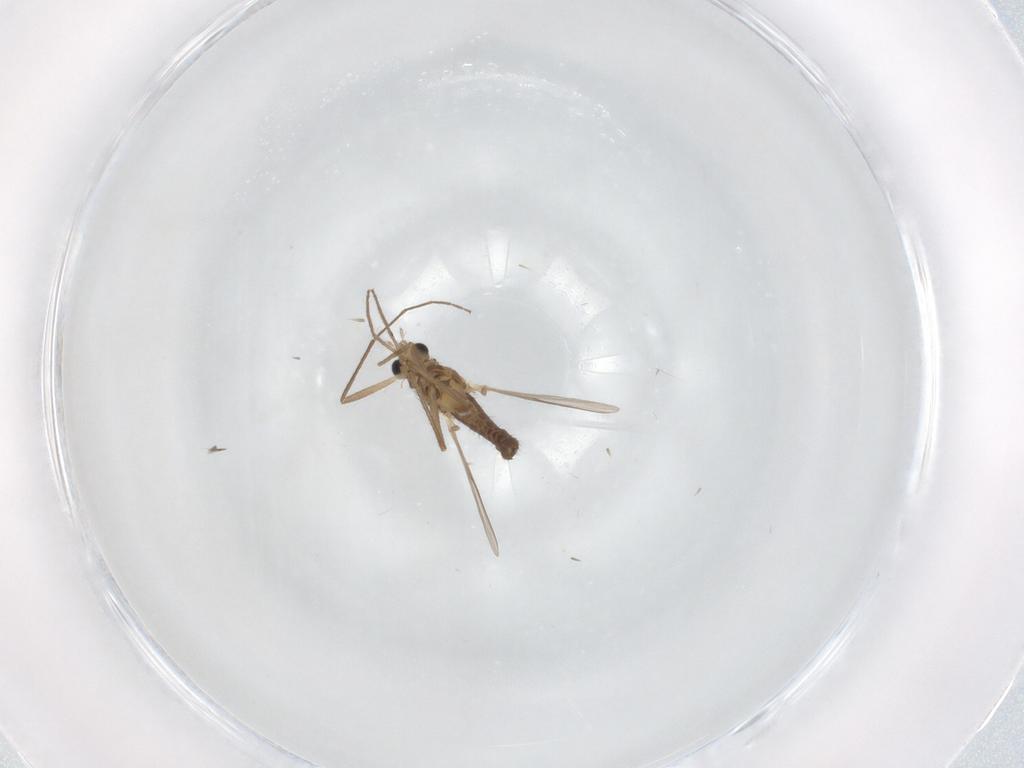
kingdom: Animalia
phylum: Arthropoda
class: Insecta
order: Diptera
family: Chironomidae
